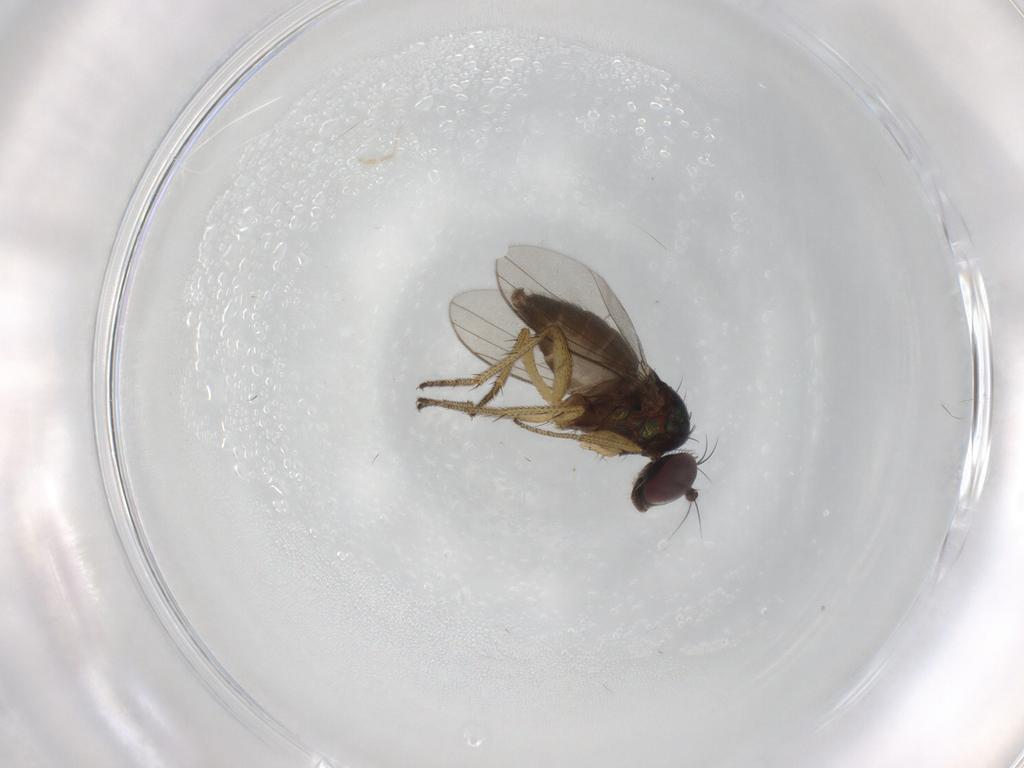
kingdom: Animalia
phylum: Arthropoda
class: Insecta
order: Diptera
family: Dolichopodidae
